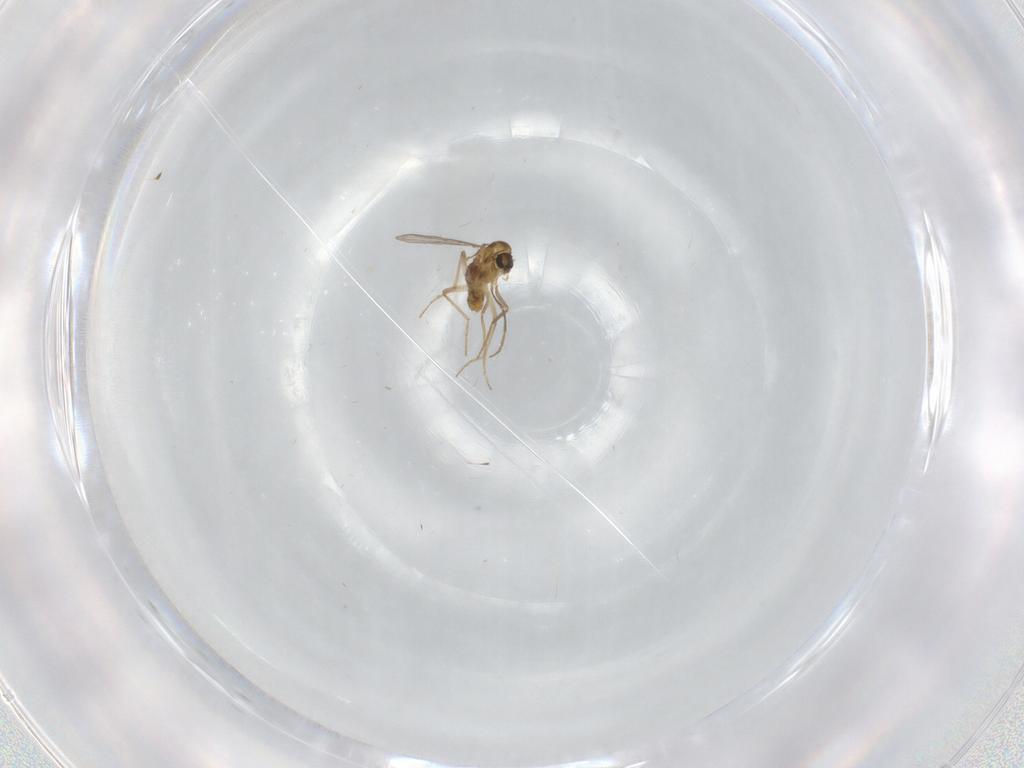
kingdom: Animalia
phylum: Arthropoda
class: Insecta
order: Diptera
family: Chironomidae
